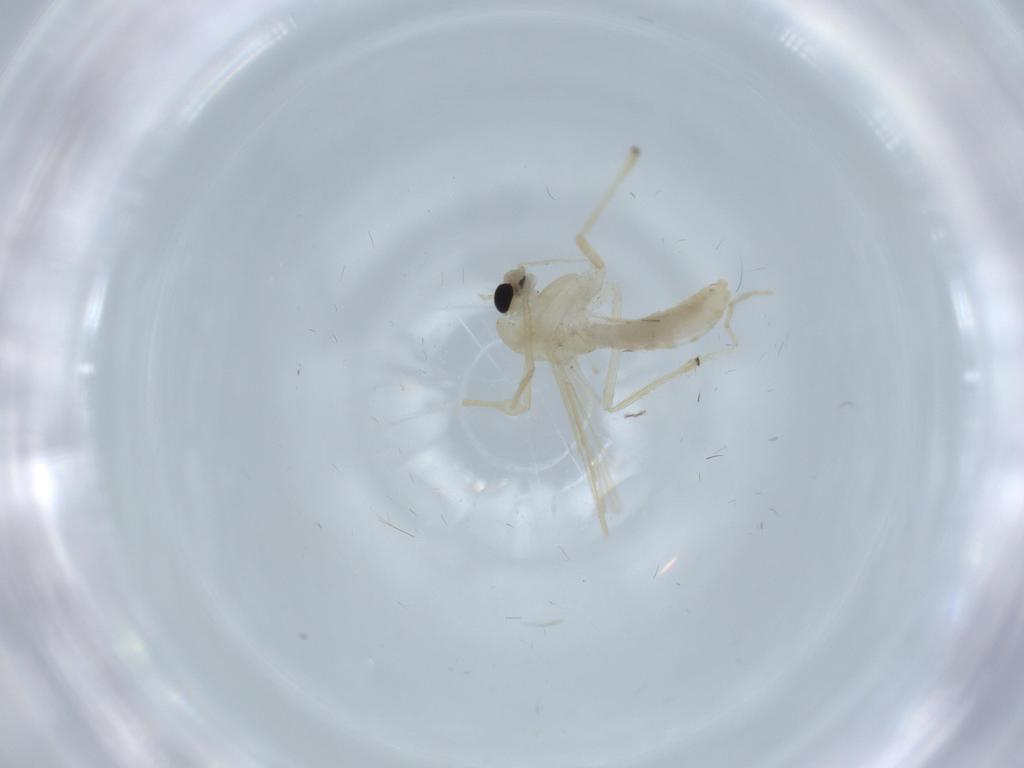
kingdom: Animalia
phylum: Arthropoda
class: Insecta
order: Diptera
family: Chironomidae
